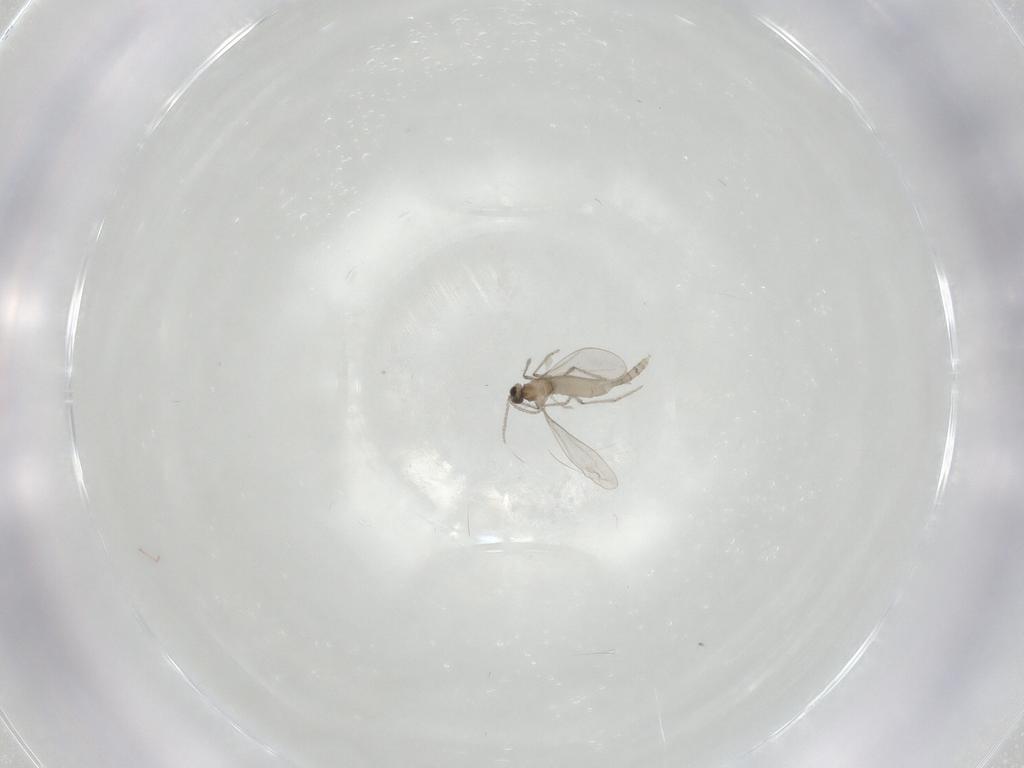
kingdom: Animalia
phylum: Arthropoda
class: Insecta
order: Diptera
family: Cecidomyiidae
